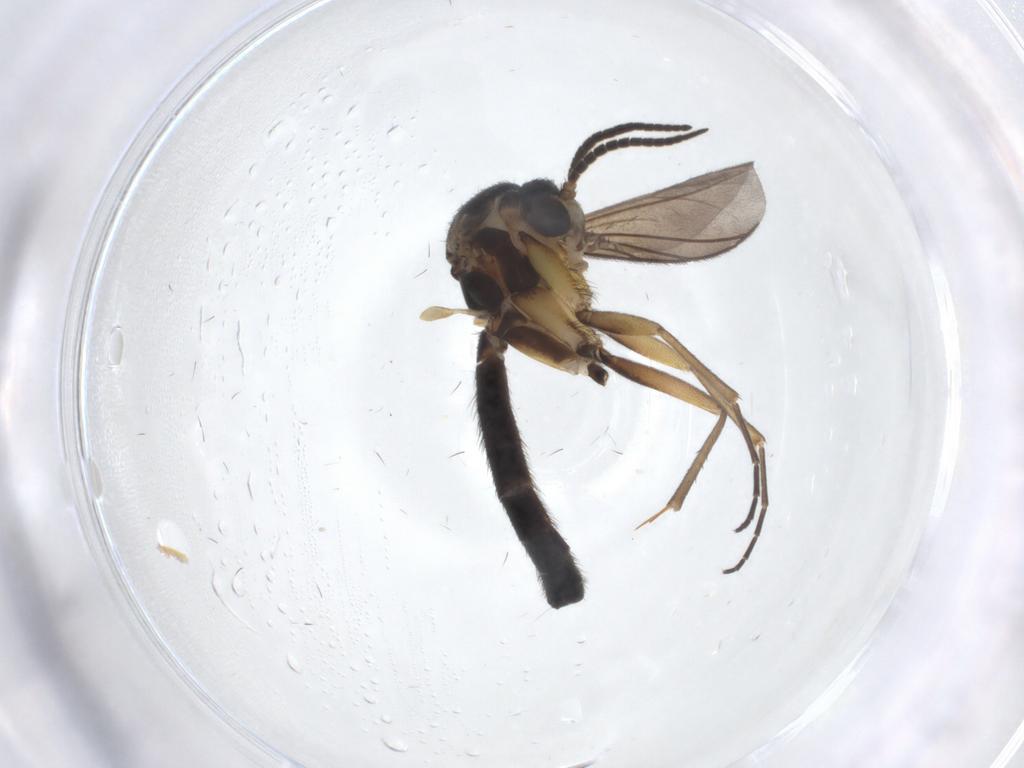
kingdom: Animalia
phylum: Arthropoda
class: Insecta
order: Diptera
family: Mycetophilidae
